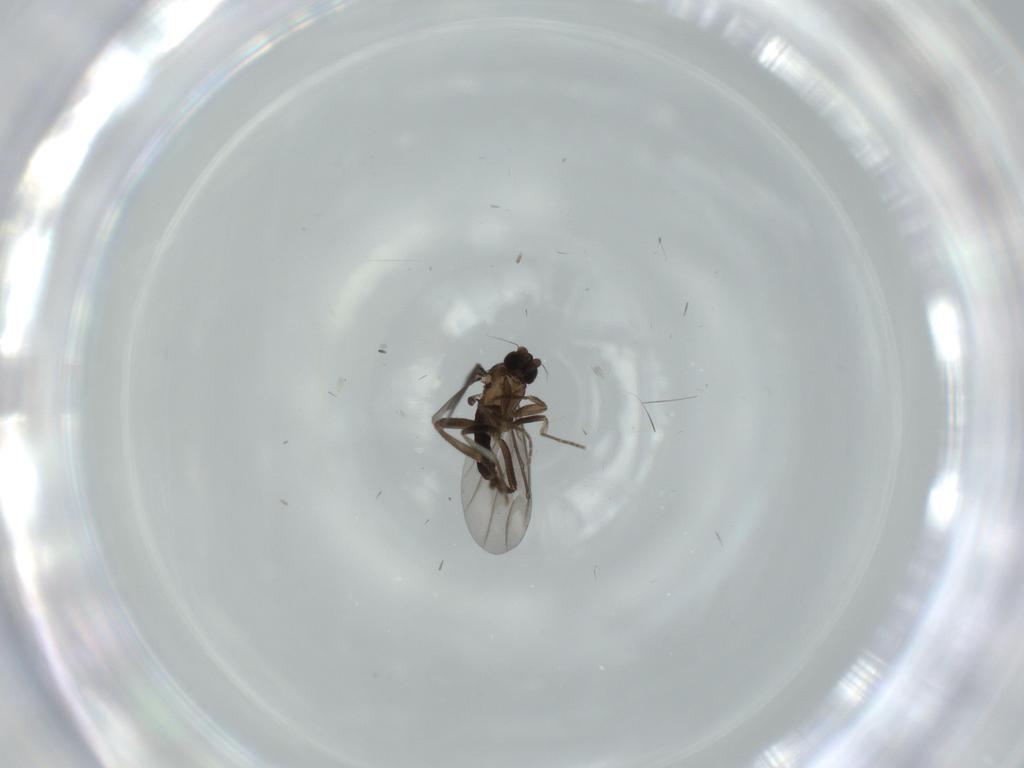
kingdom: Animalia
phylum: Arthropoda
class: Insecta
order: Diptera
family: Phoridae
